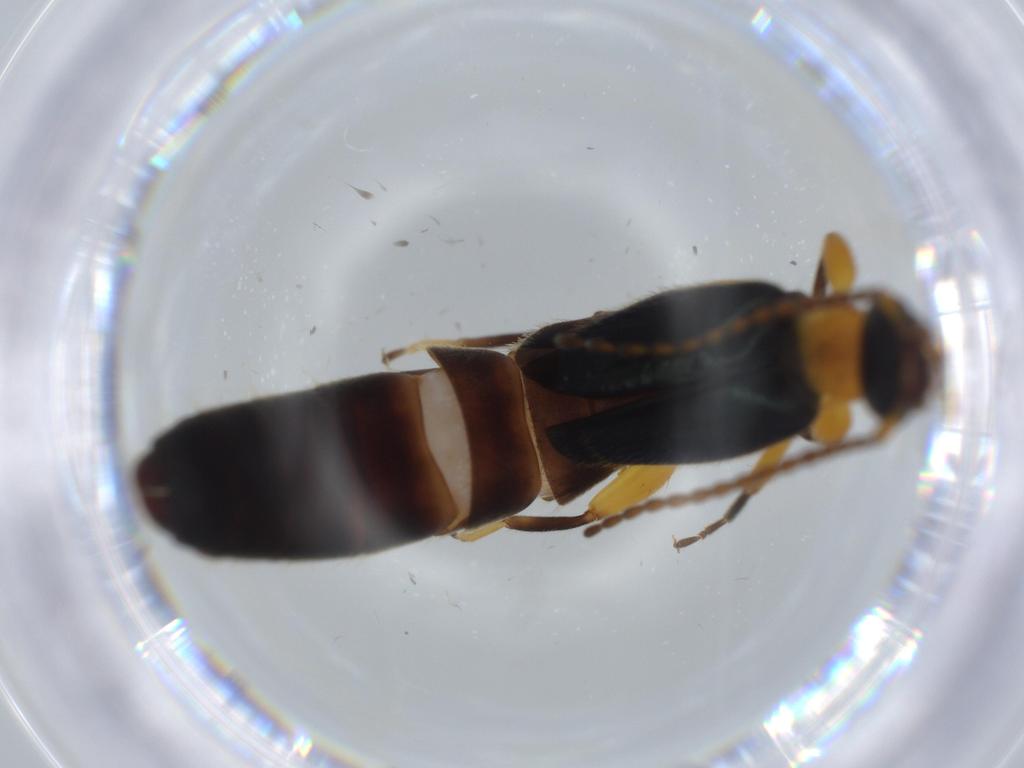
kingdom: Animalia
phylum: Arthropoda
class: Insecta
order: Dermaptera
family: Forficulidae
